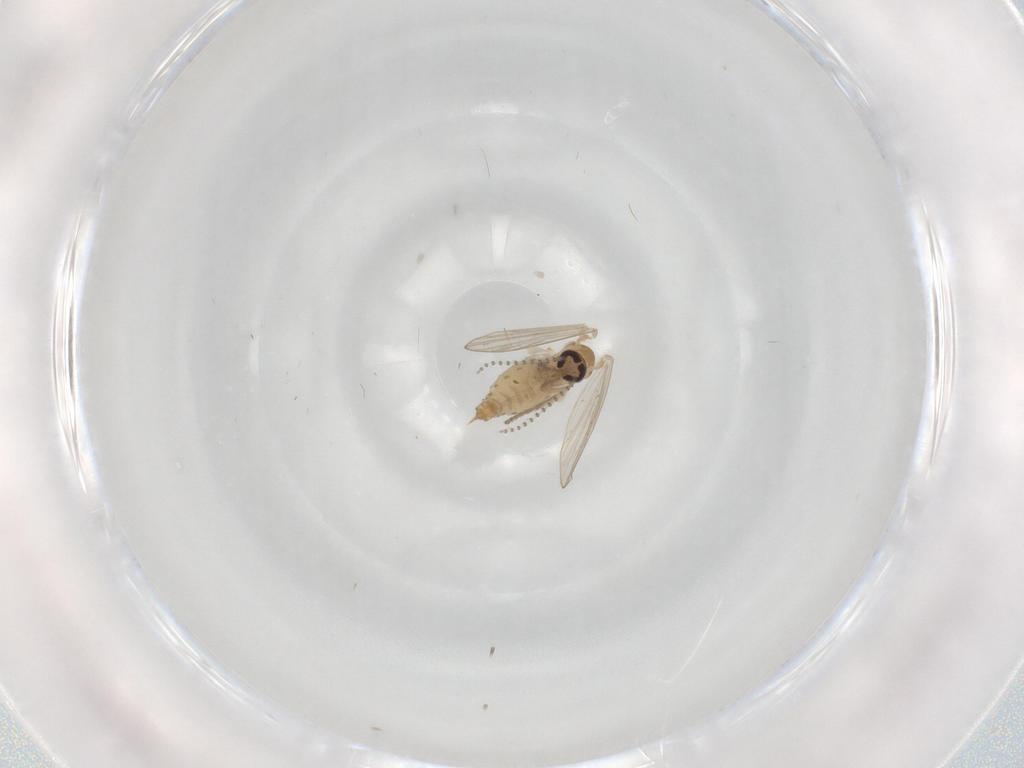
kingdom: Animalia
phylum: Arthropoda
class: Insecta
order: Diptera
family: Psychodidae
